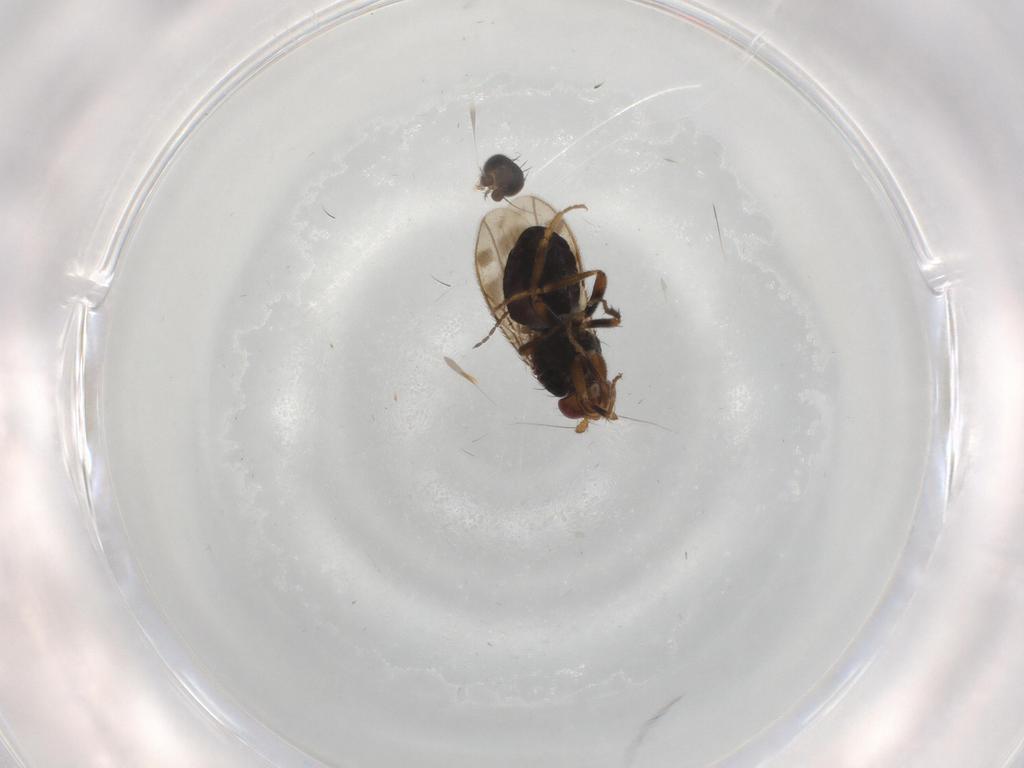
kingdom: Animalia
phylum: Arthropoda
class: Insecta
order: Diptera
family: Sphaeroceridae
